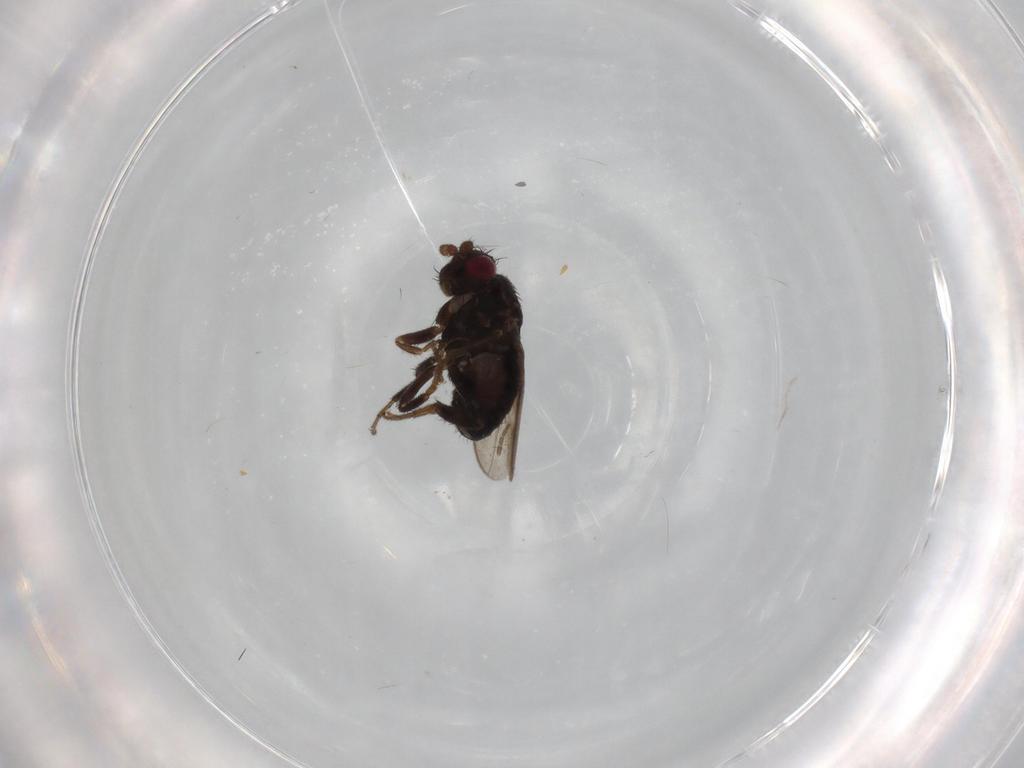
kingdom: Animalia
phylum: Arthropoda
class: Insecta
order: Diptera
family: Sphaeroceridae
